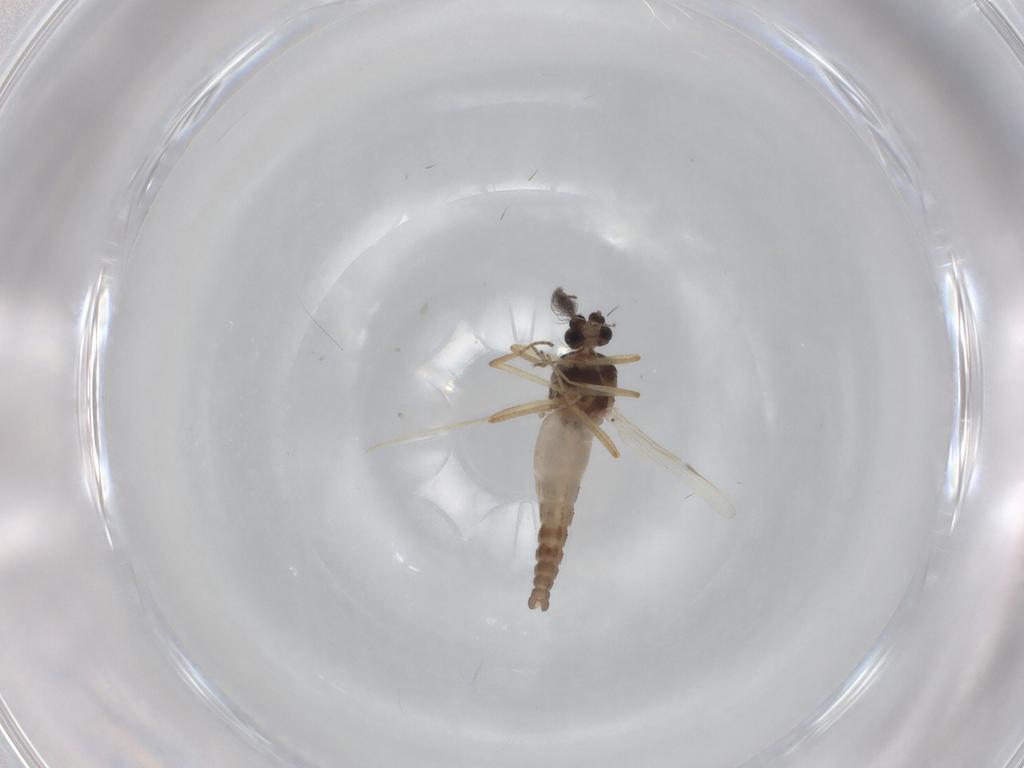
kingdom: Animalia
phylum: Arthropoda
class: Insecta
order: Diptera
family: Ceratopogonidae
